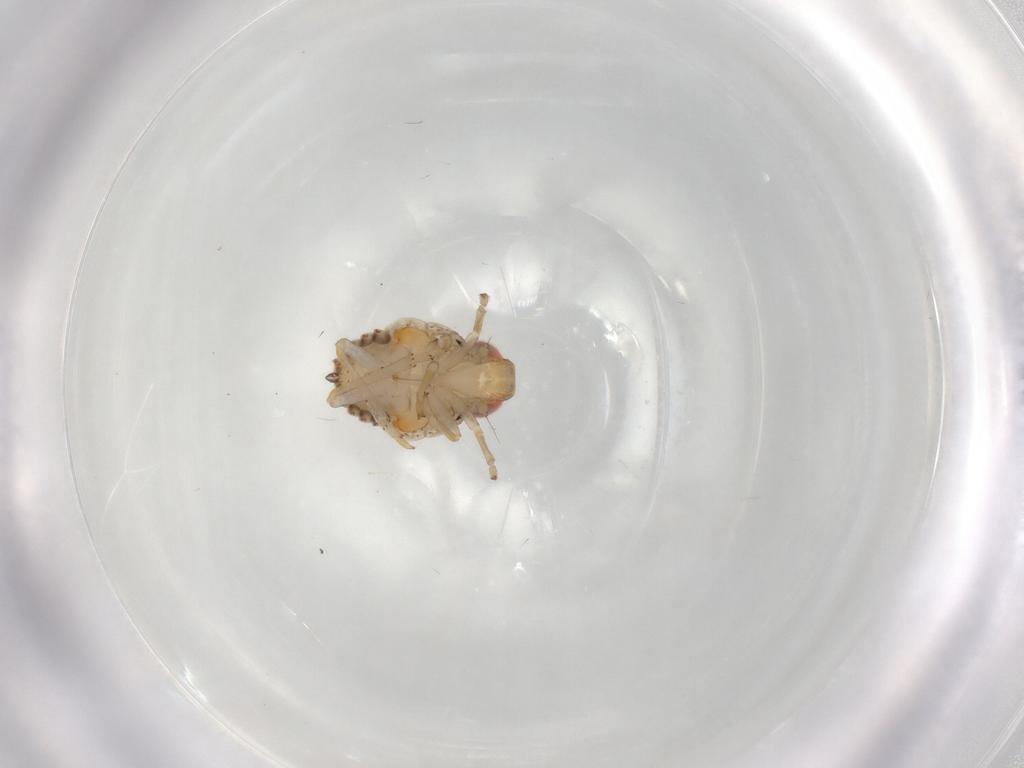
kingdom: Animalia
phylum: Arthropoda
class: Insecta
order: Hemiptera
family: Issidae
